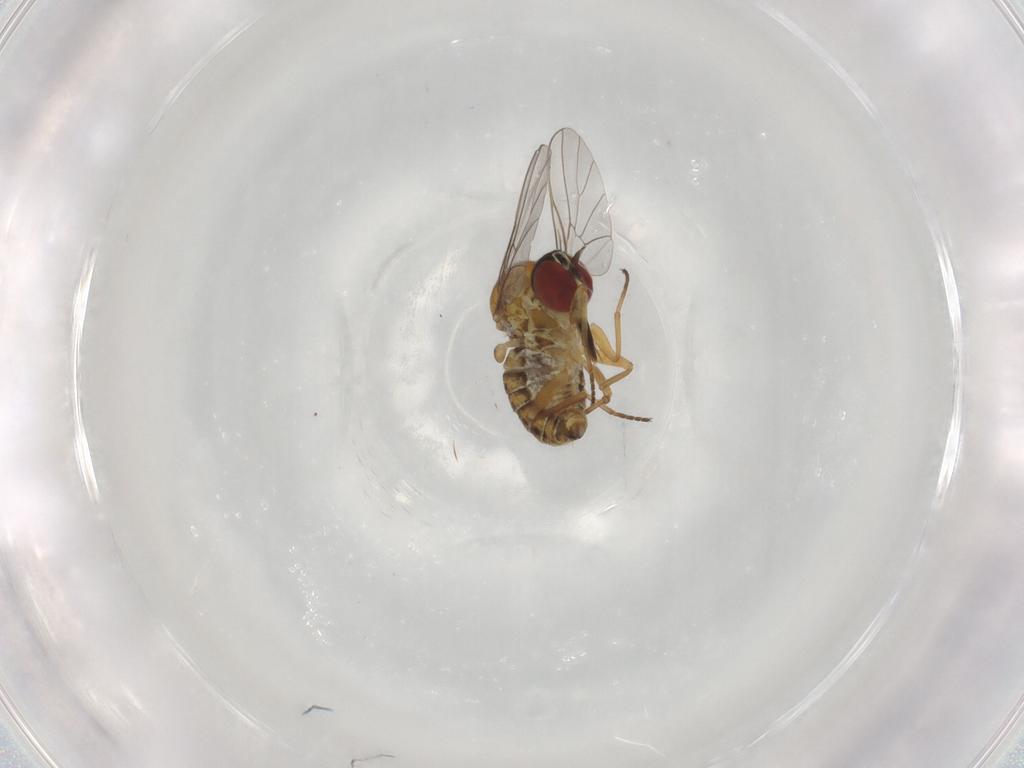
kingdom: Animalia
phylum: Arthropoda
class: Insecta
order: Diptera
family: Bombyliidae
